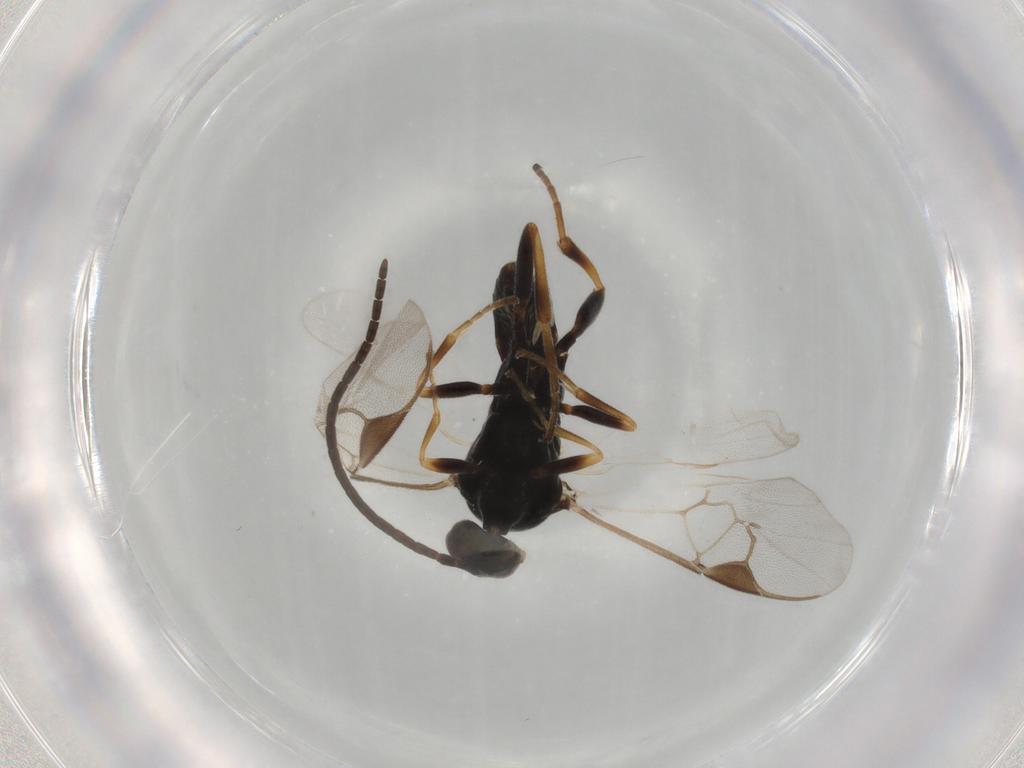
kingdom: Animalia
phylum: Arthropoda
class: Insecta
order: Hymenoptera
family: Braconidae
